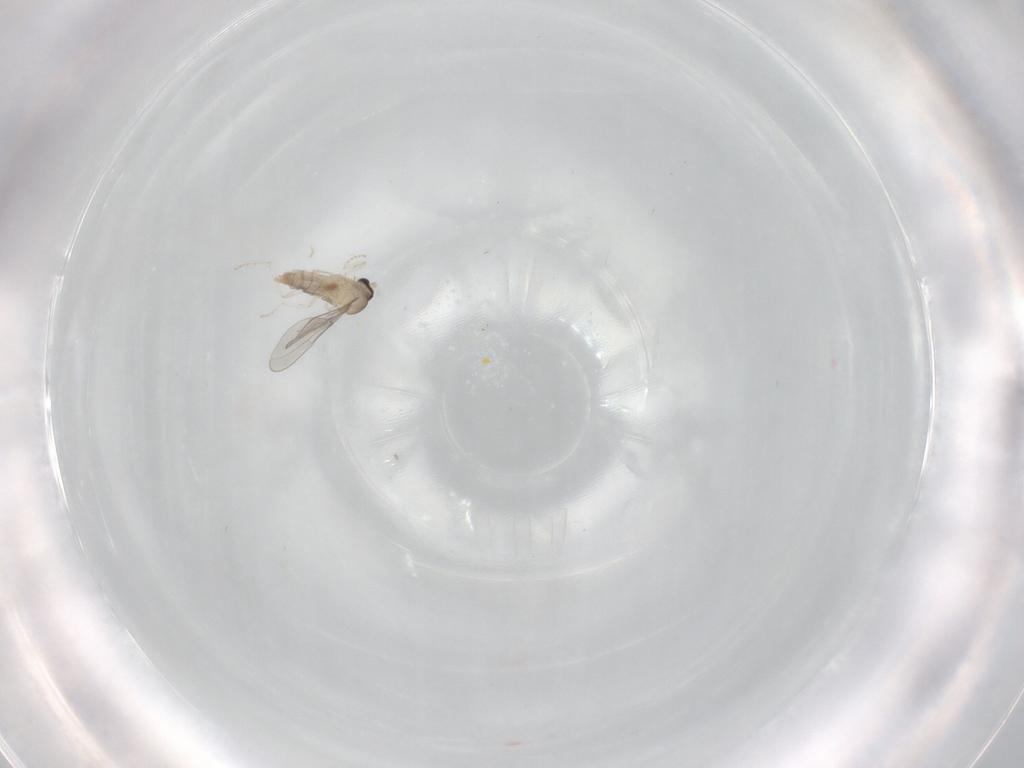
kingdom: Animalia
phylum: Arthropoda
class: Insecta
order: Diptera
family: Cecidomyiidae
